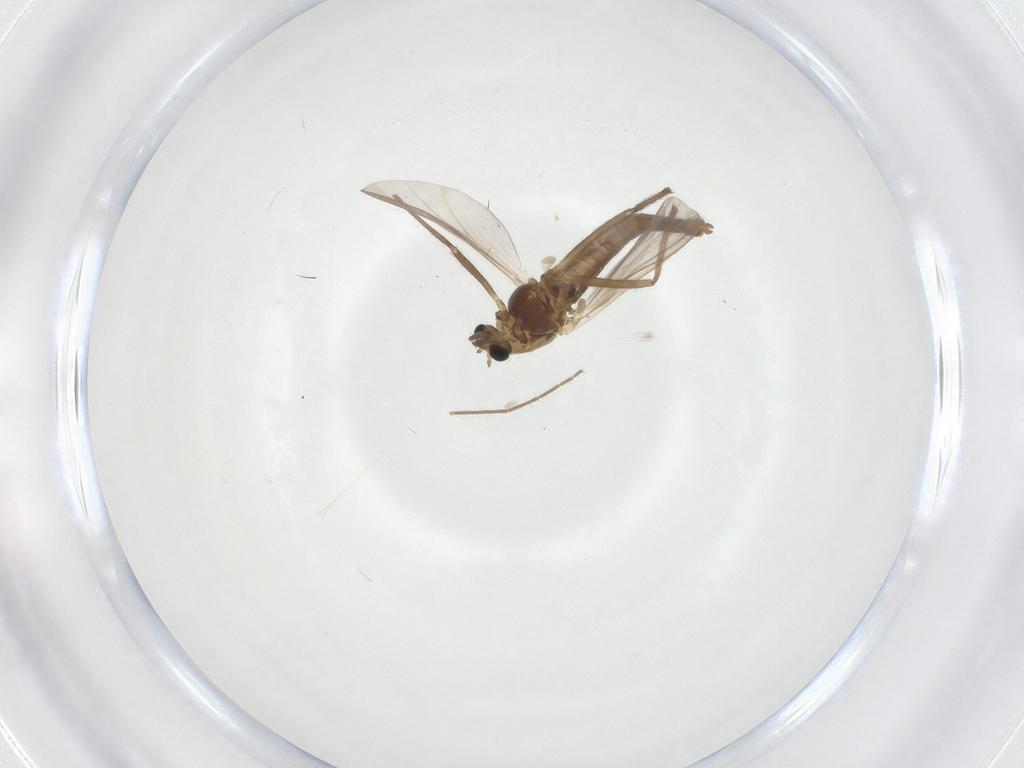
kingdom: Animalia
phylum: Arthropoda
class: Insecta
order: Diptera
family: Chironomidae
